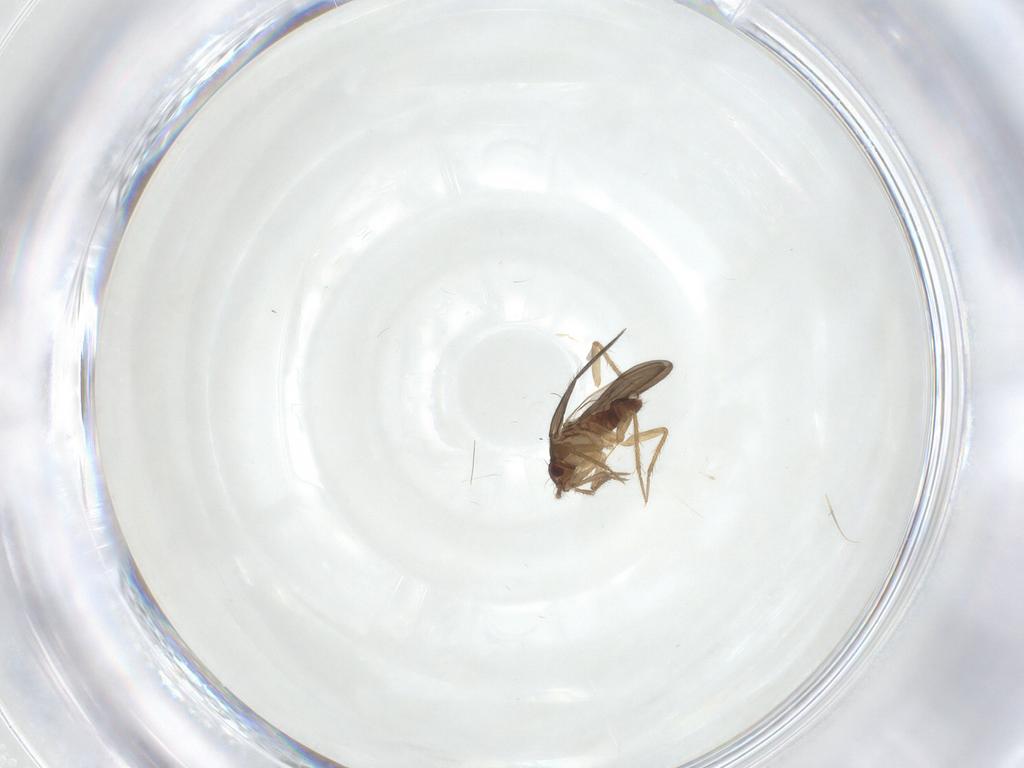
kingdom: Animalia
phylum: Arthropoda
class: Insecta
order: Hemiptera
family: Ceratocombidae
